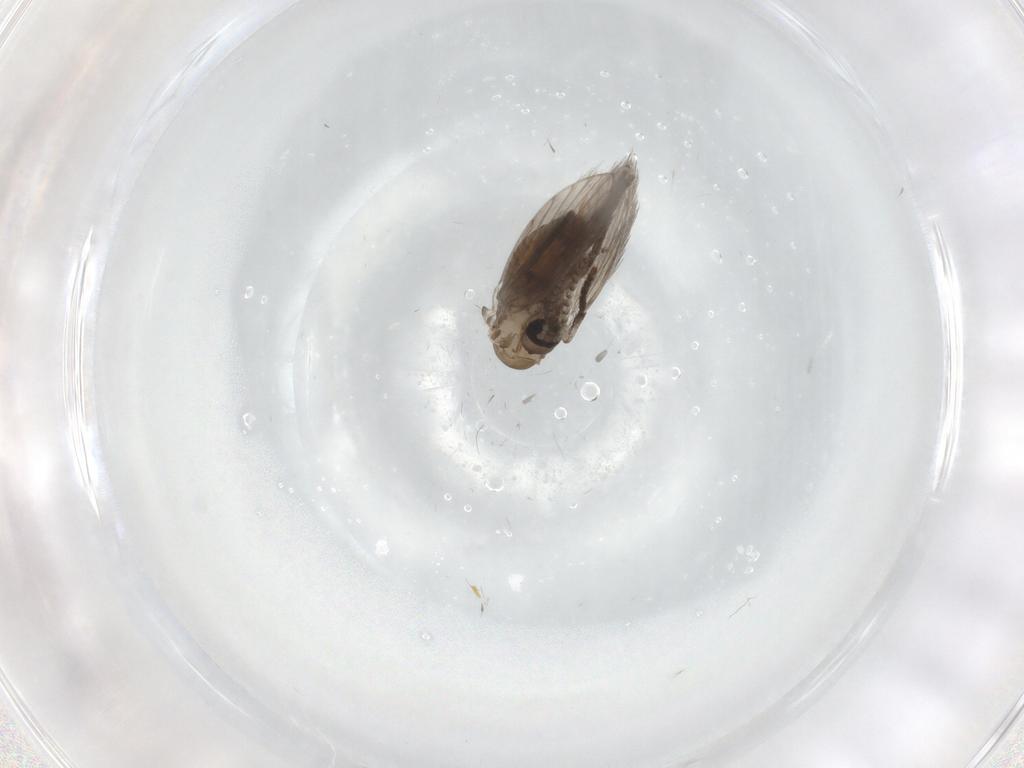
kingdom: Animalia
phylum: Arthropoda
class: Insecta
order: Diptera
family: Psychodidae
